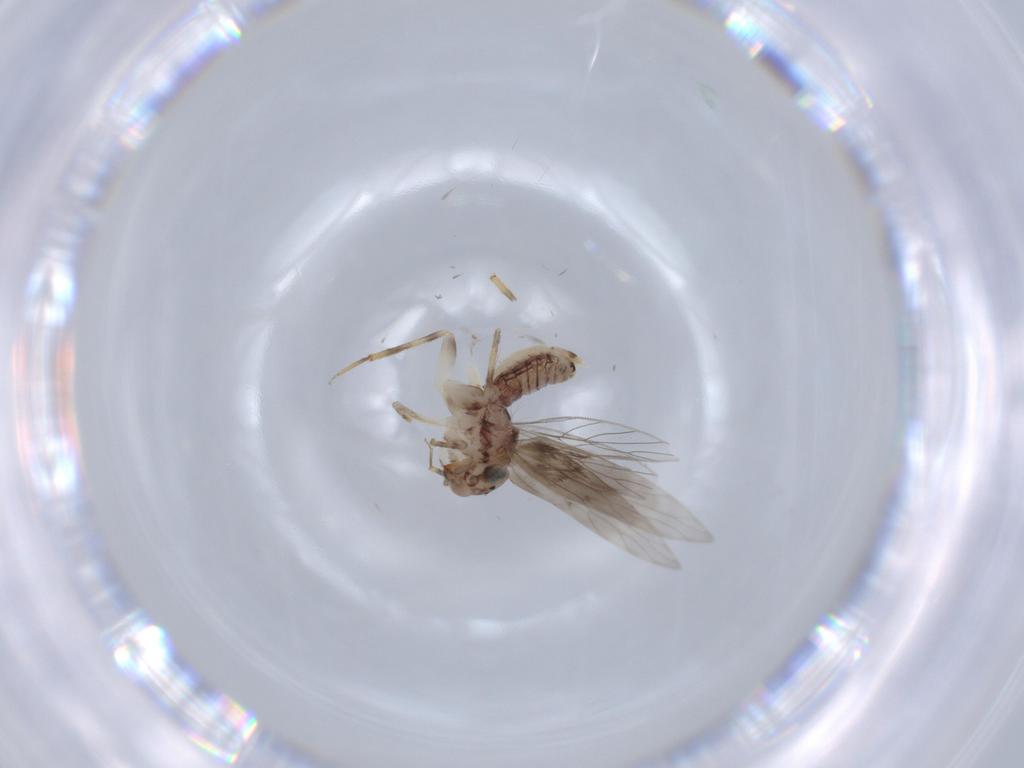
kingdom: Animalia
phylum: Arthropoda
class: Insecta
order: Psocodea
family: Lepidopsocidae
